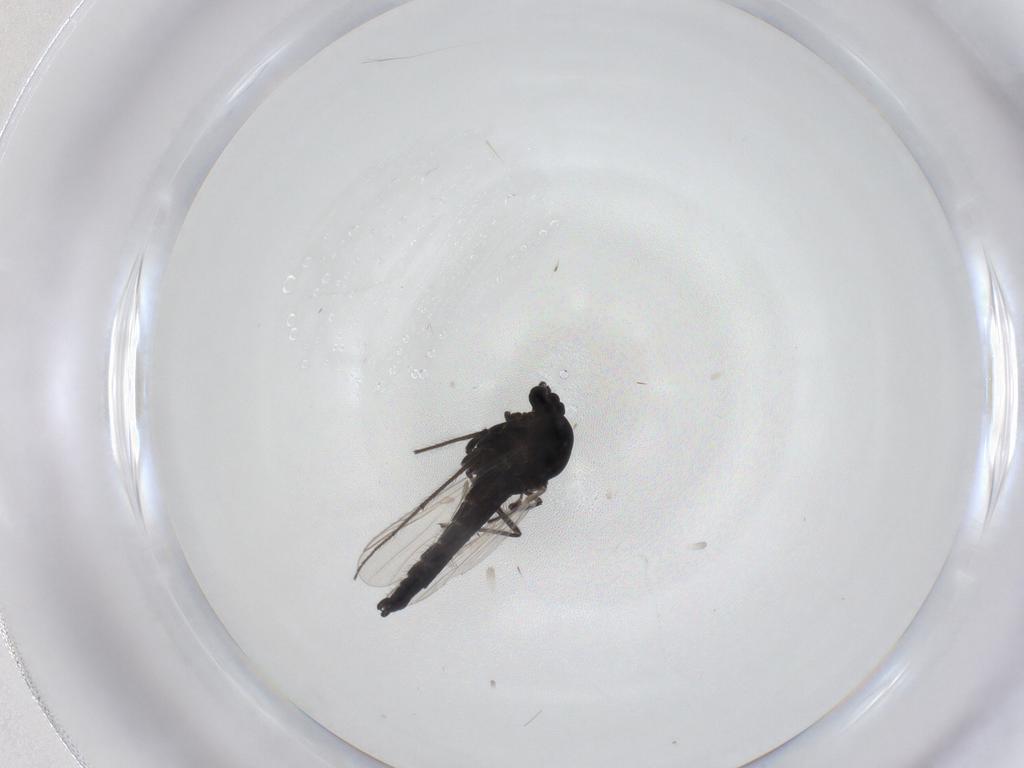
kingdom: Animalia
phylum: Arthropoda
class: Insecta
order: Diptera
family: Chironomidae
